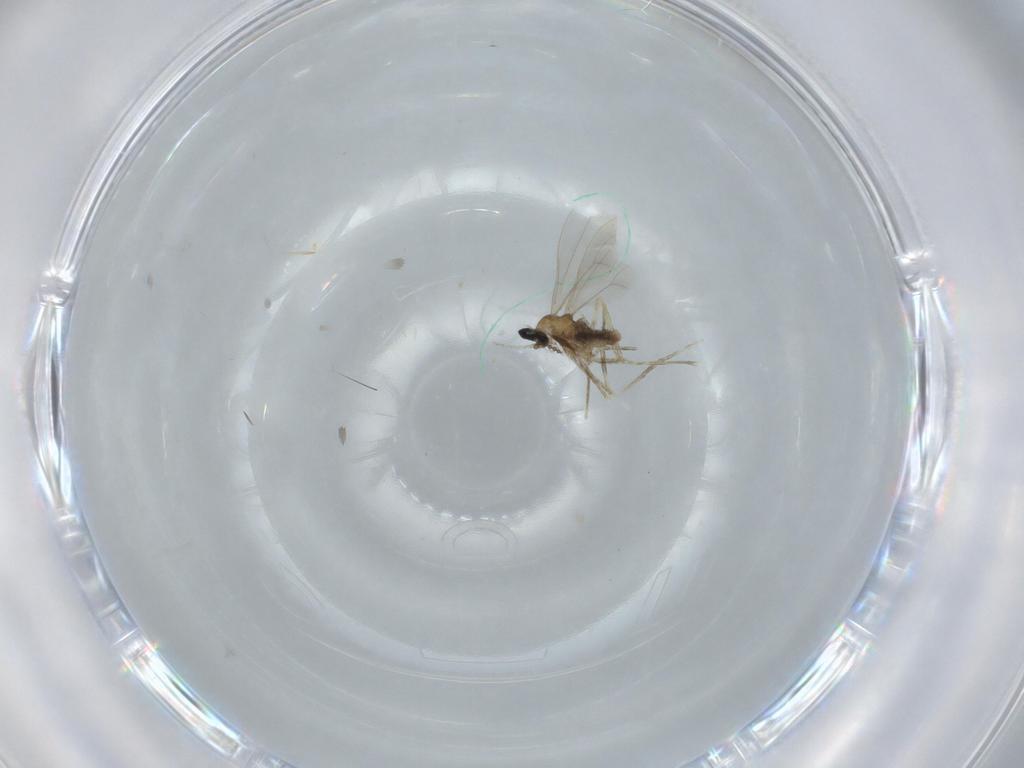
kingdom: Animalia
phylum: Arthropoda
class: Insecta
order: Diptera
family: Cecidomyiidae
